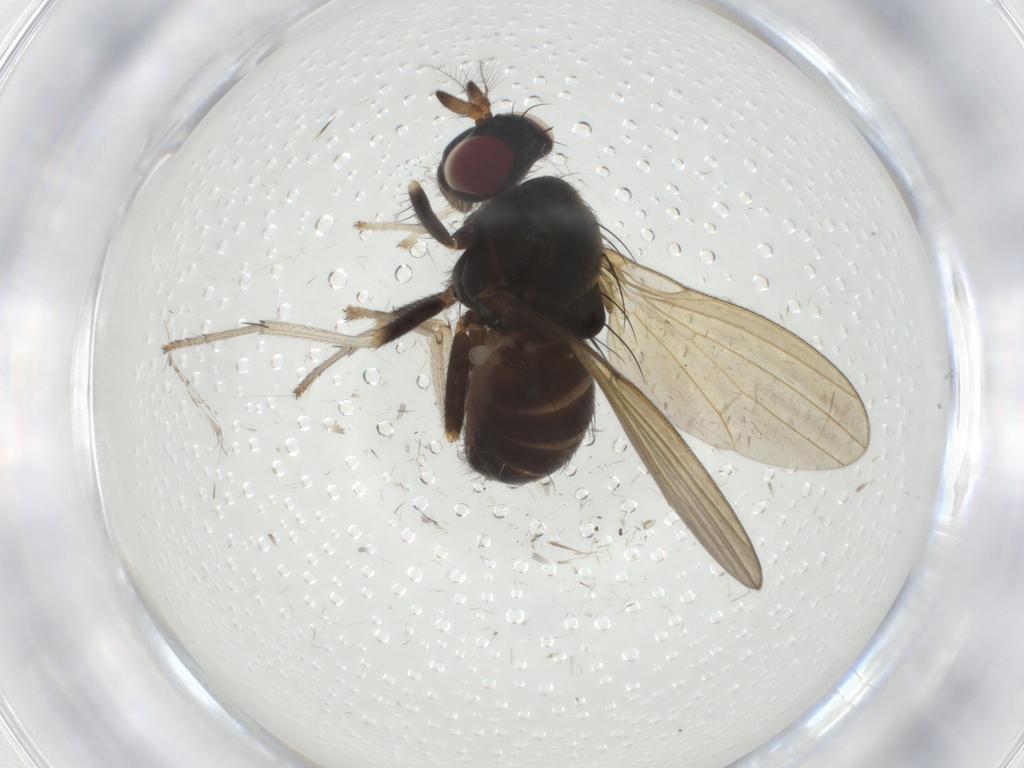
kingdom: Animalia
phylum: Arthropoda
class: Insecta
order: Diptera
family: Lauxaniidae
